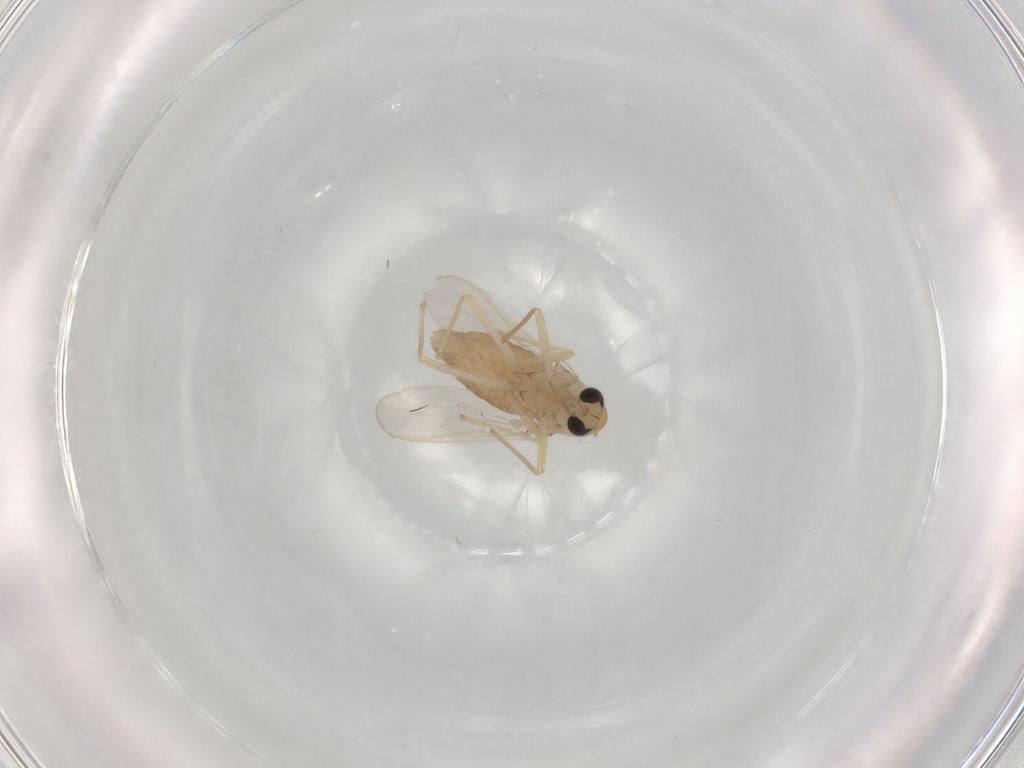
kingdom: Animalia
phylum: Arthropoda
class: Insecta
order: Diptera
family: Chironomidae
